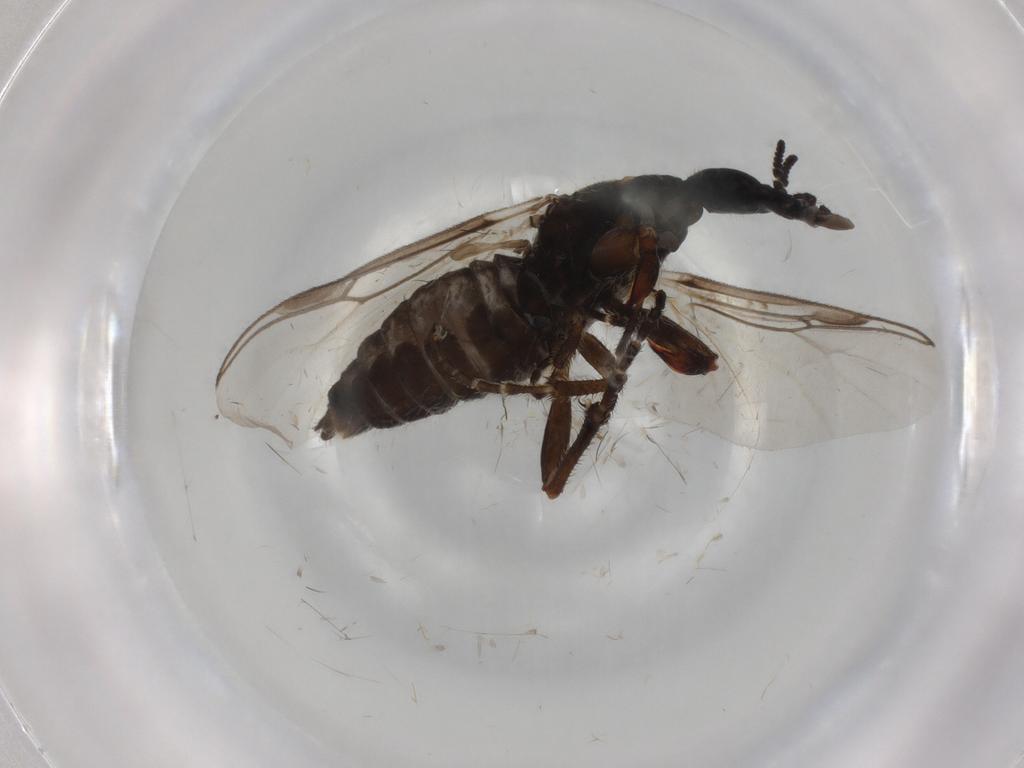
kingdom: Animalia
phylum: Arthropoda
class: Insecta
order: Diptera
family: Bibionidae
